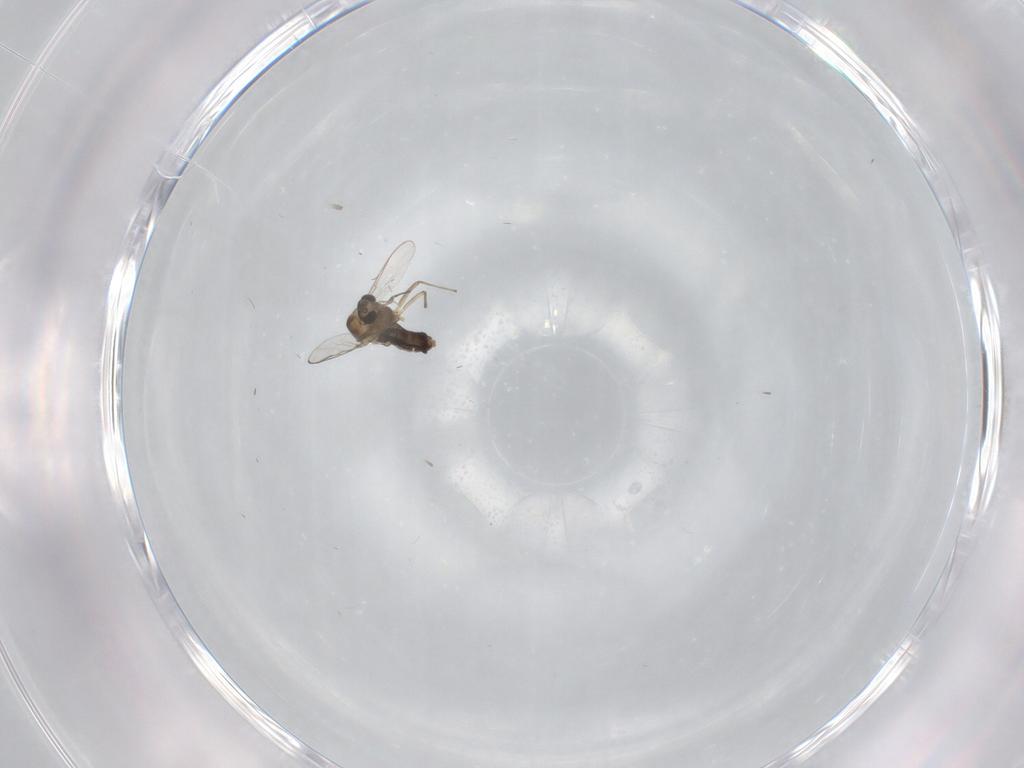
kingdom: Animalia
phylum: Arthropoda
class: Insecta
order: Diptera
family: Chironomidae
